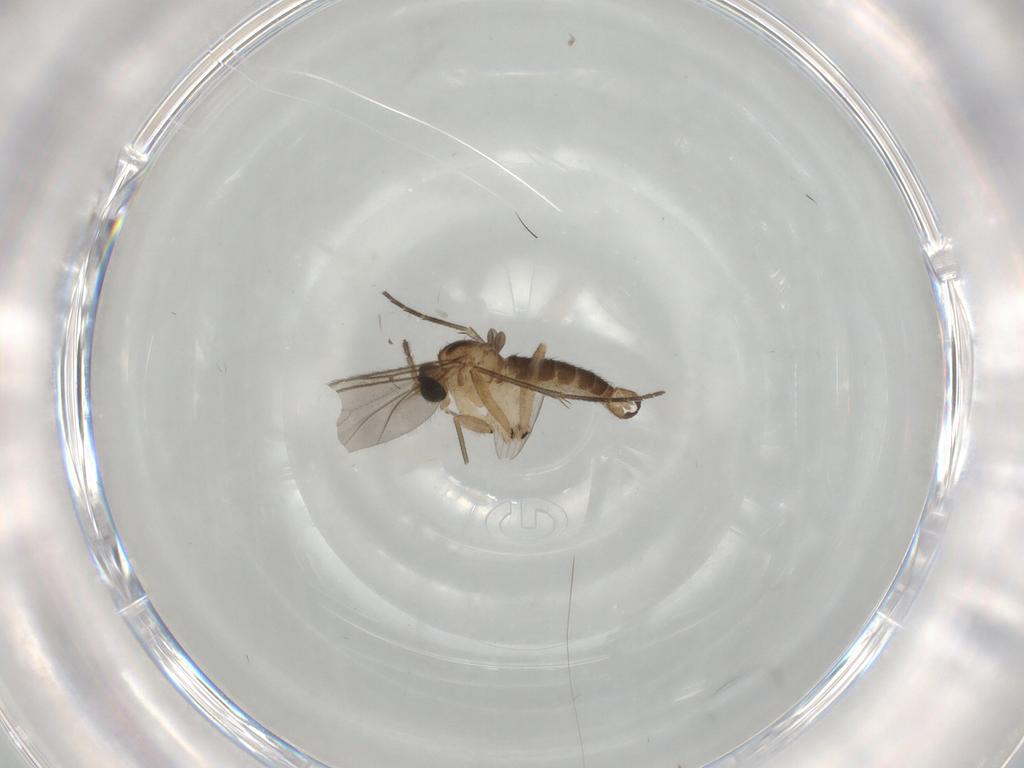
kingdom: Animalia
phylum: Arthropoda
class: Insecta
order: Diptera
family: Sciaridae
